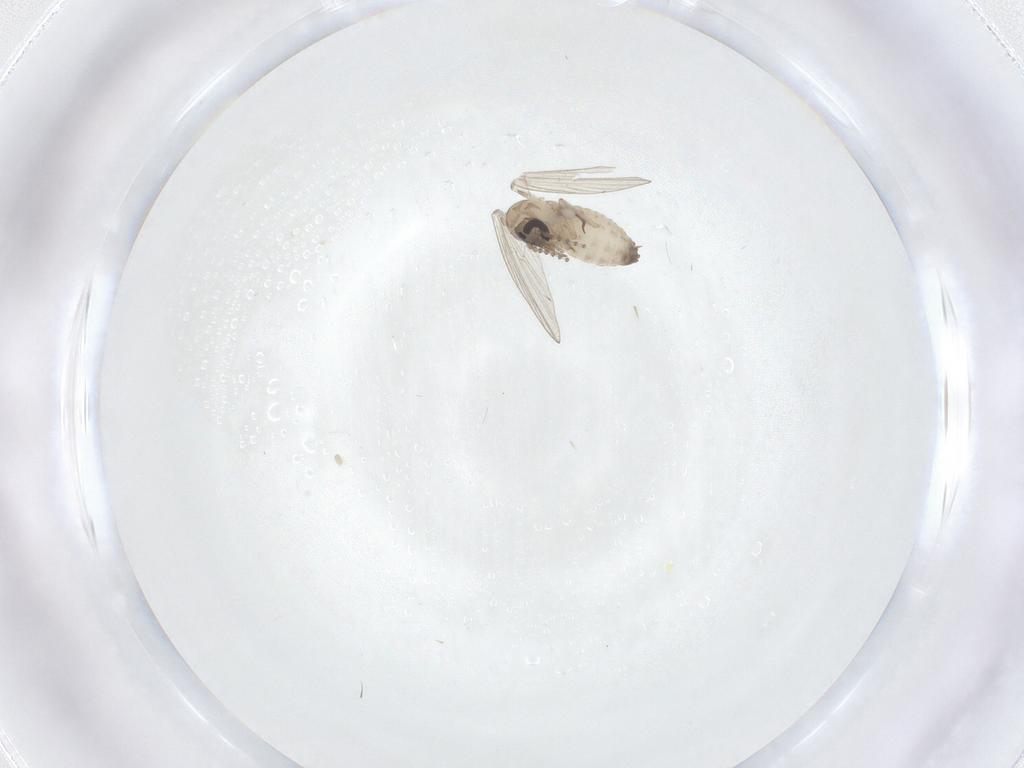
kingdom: Animalia
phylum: Arthropoda
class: Insecta
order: Diptera
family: Psychodidae
